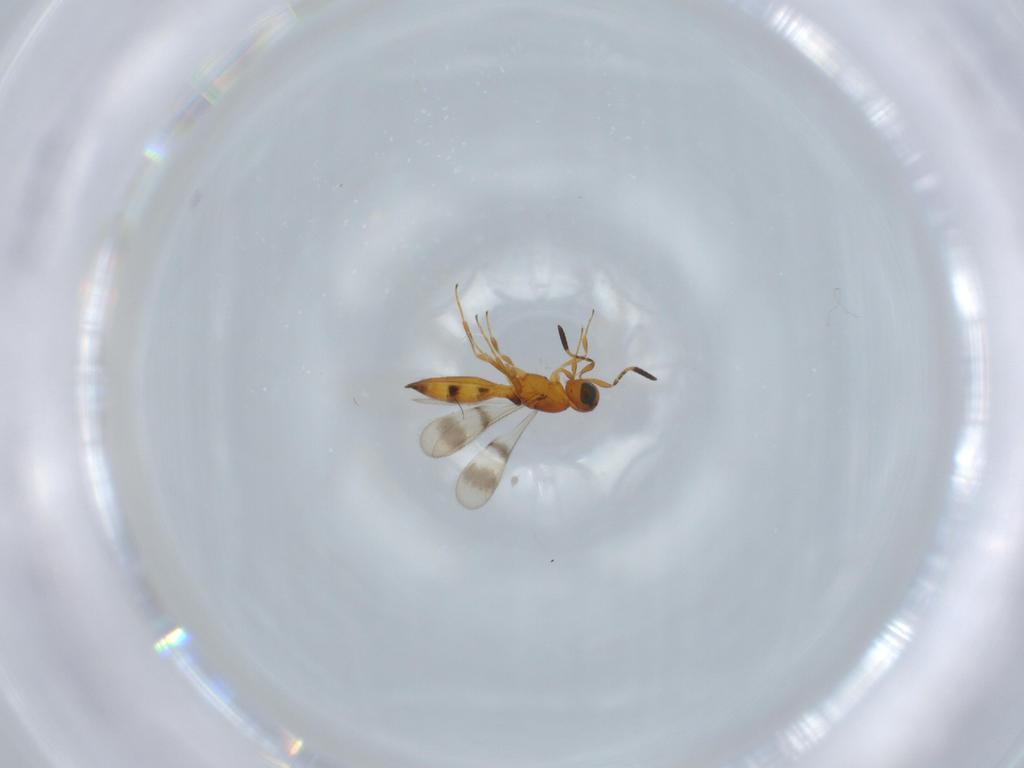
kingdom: Animalia
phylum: Arthropoda
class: Insecta
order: Hymenoptera
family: Scelionidae
